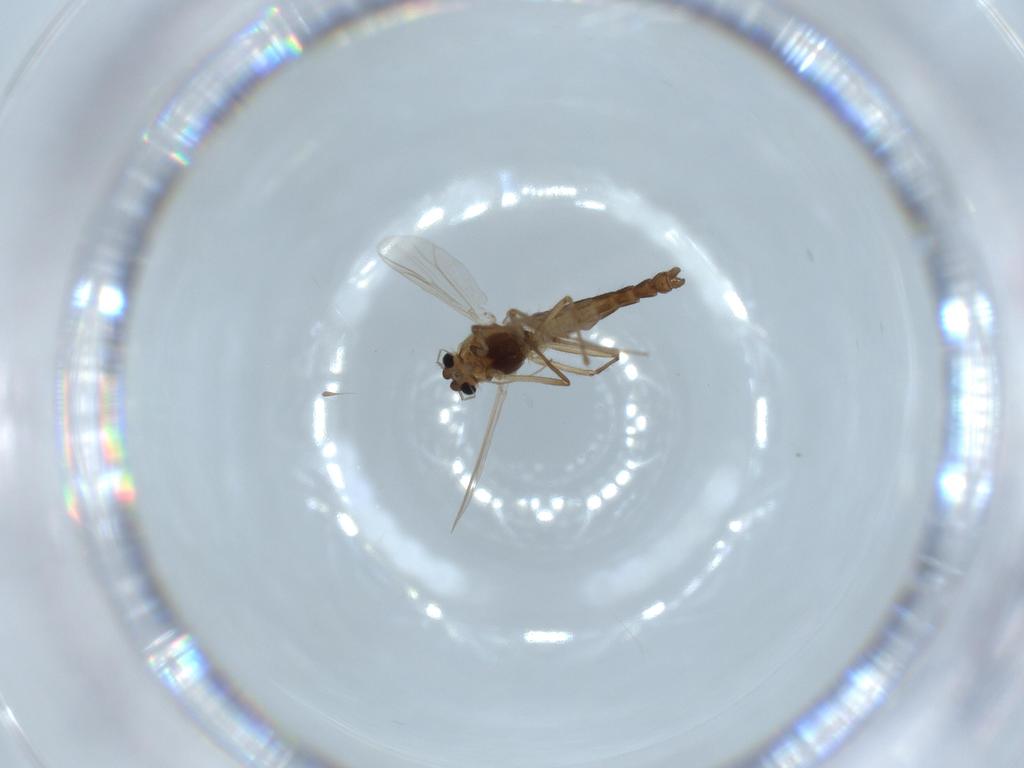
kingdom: Animalia
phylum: Arthropoda
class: Insecta
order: Diptera
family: Chironomidae
